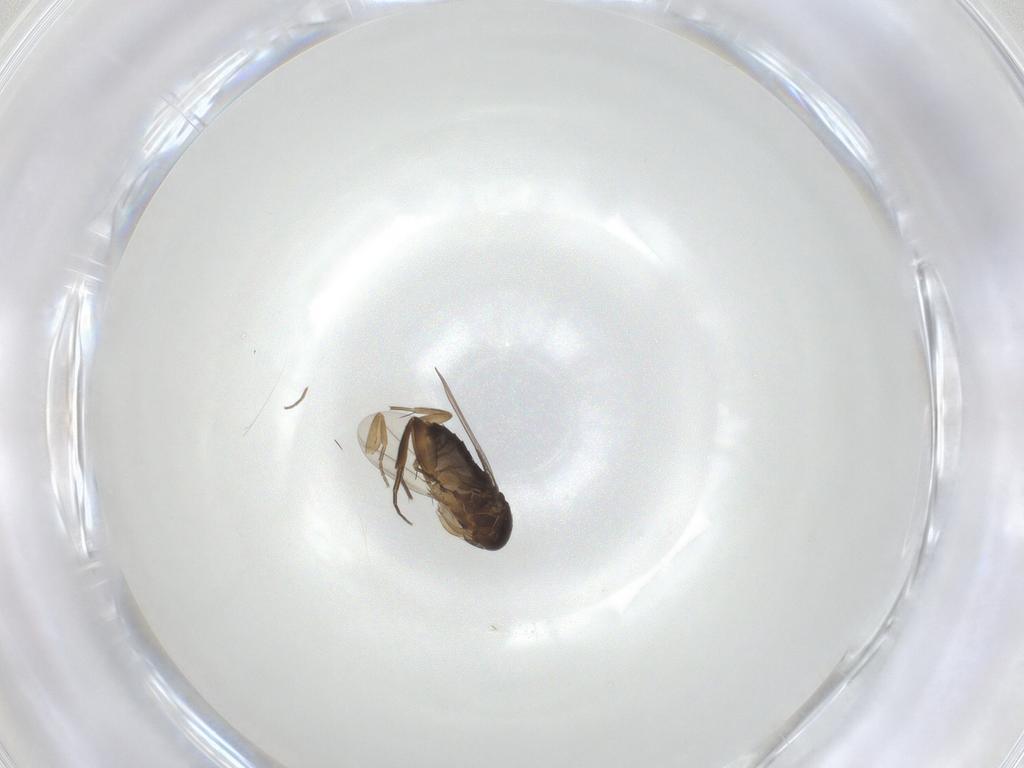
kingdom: Animalia
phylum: Arthropoda
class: Insecta
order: Diptera
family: Phoridae
